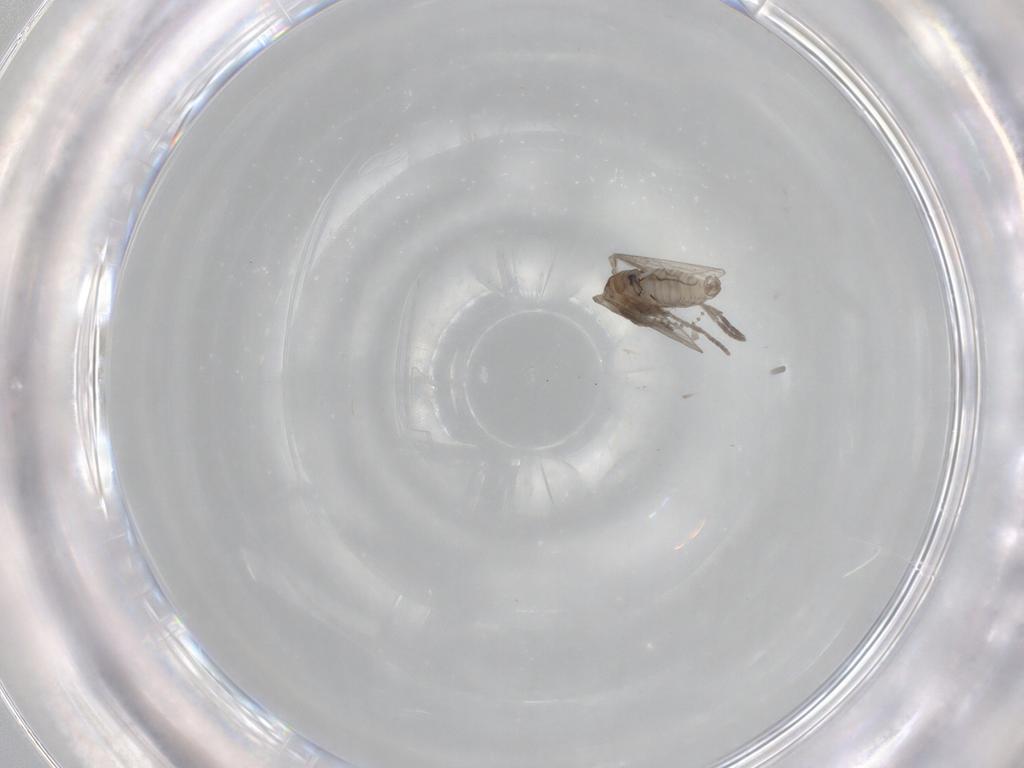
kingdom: Animalia
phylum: Arthropoda
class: Insecta
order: Diptera
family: Psychodidae
